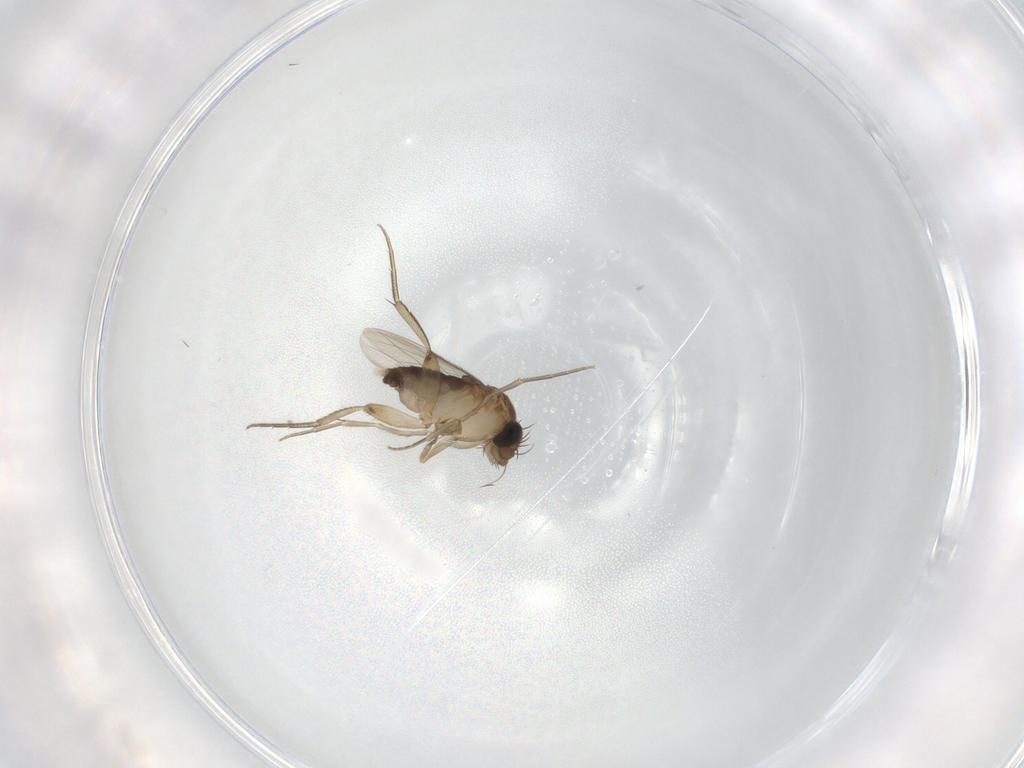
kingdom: Animalia
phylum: Arthropoda
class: Insecta
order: Diptera
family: Phoridae
